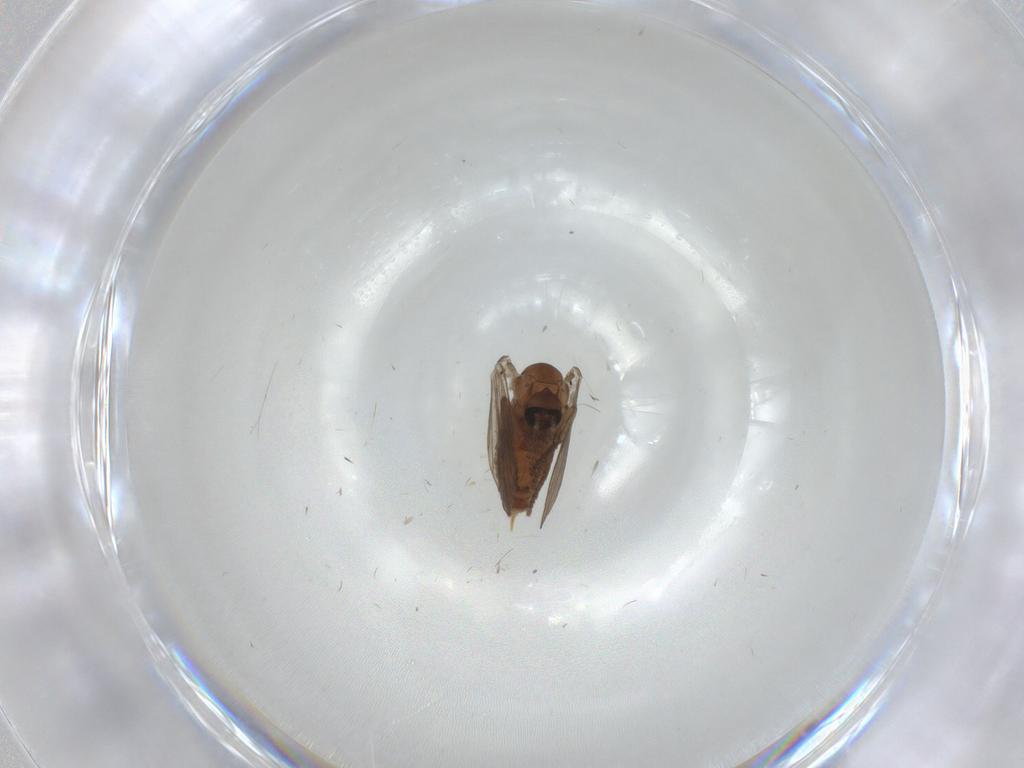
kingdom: Animalia
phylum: Arthropoda
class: Insecta
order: Diptera
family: Psychodidae
